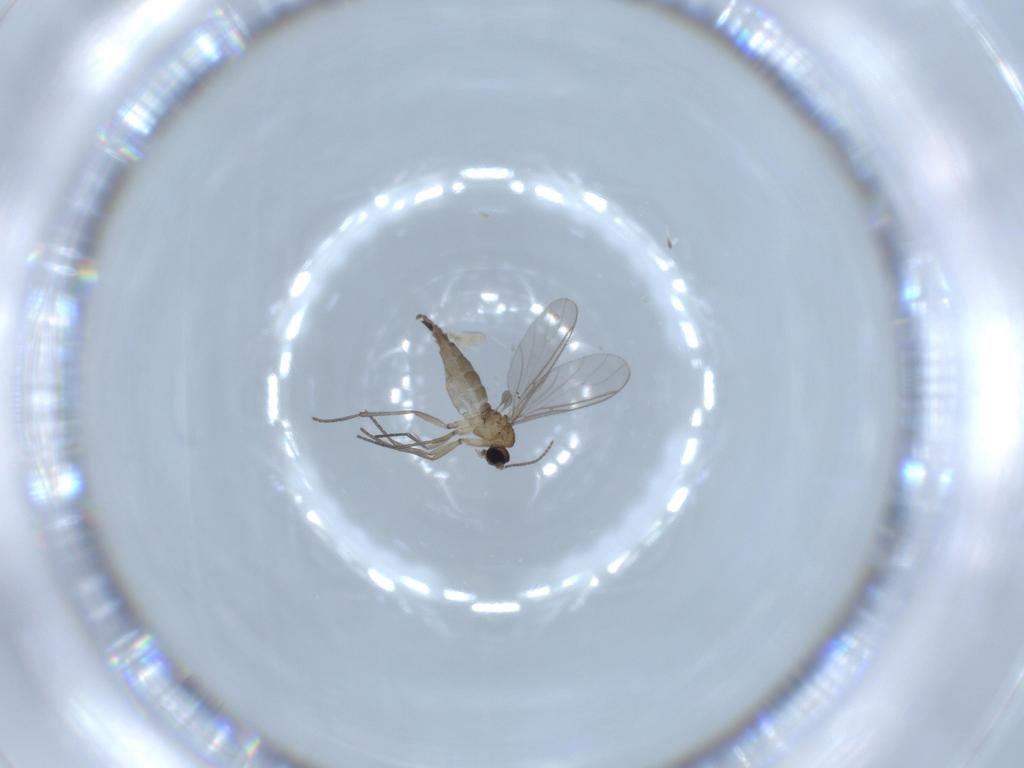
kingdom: Animalia
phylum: Arthropoda
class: Insecta
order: Diptera
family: Sciaridae
